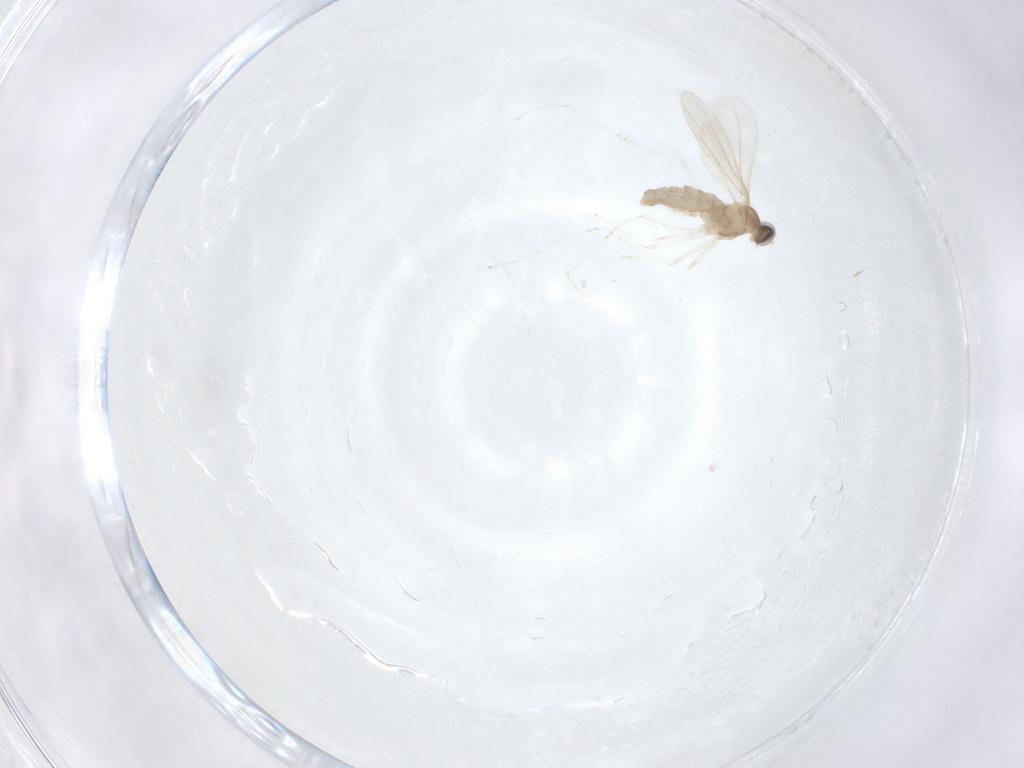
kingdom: Animalia
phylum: Arthropoda
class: Insecta
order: Diptera
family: Cecidomyiidae
